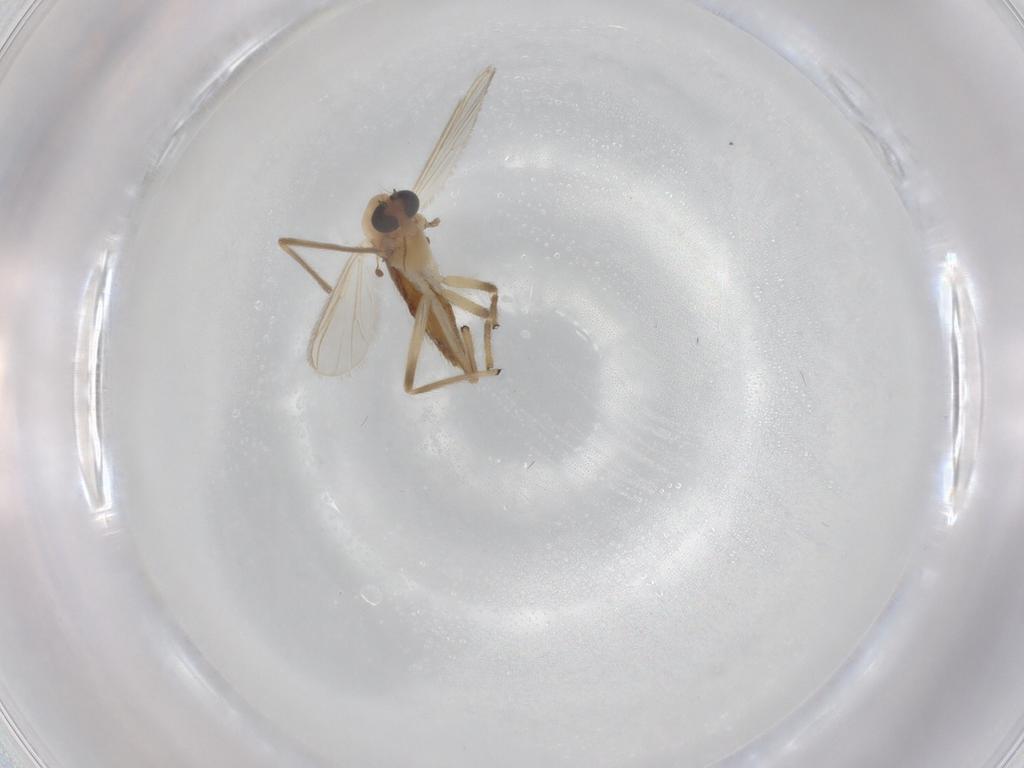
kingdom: Animalia
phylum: Arthropoda
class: Insecta
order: Diptera
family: Chironomidae
